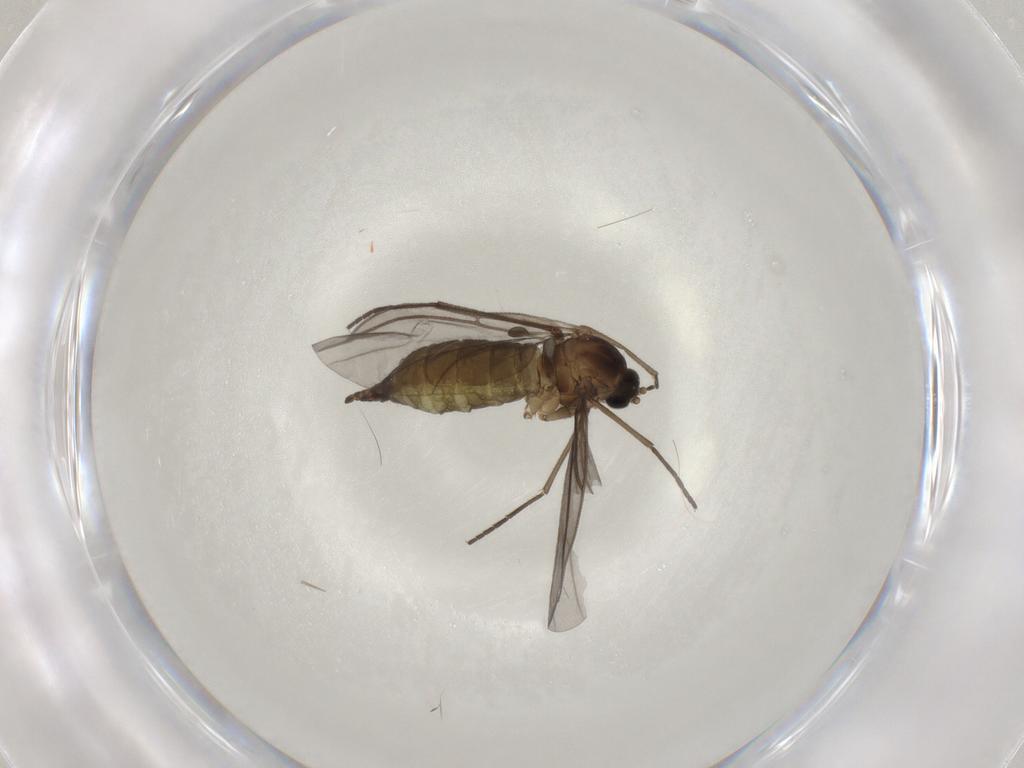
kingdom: Animalia
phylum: Arthropoda
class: Insecta
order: Diptera
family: Sciaridae
